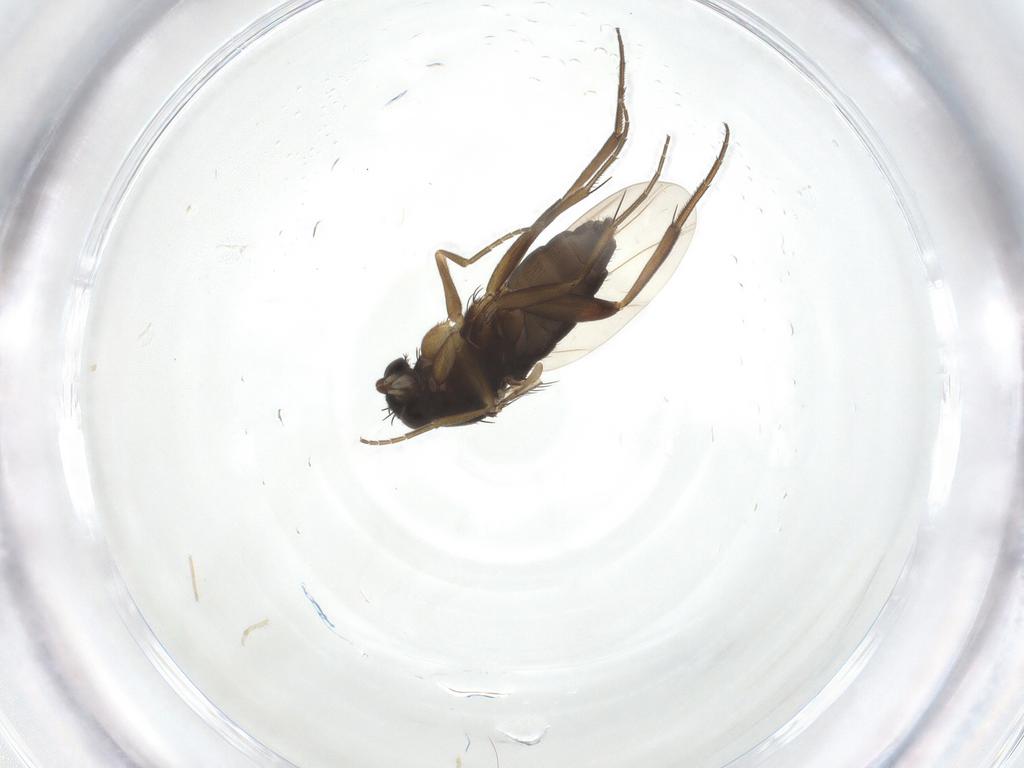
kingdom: Animalia
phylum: Arthropoda
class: Insecta
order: Diptera
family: Phoridae
